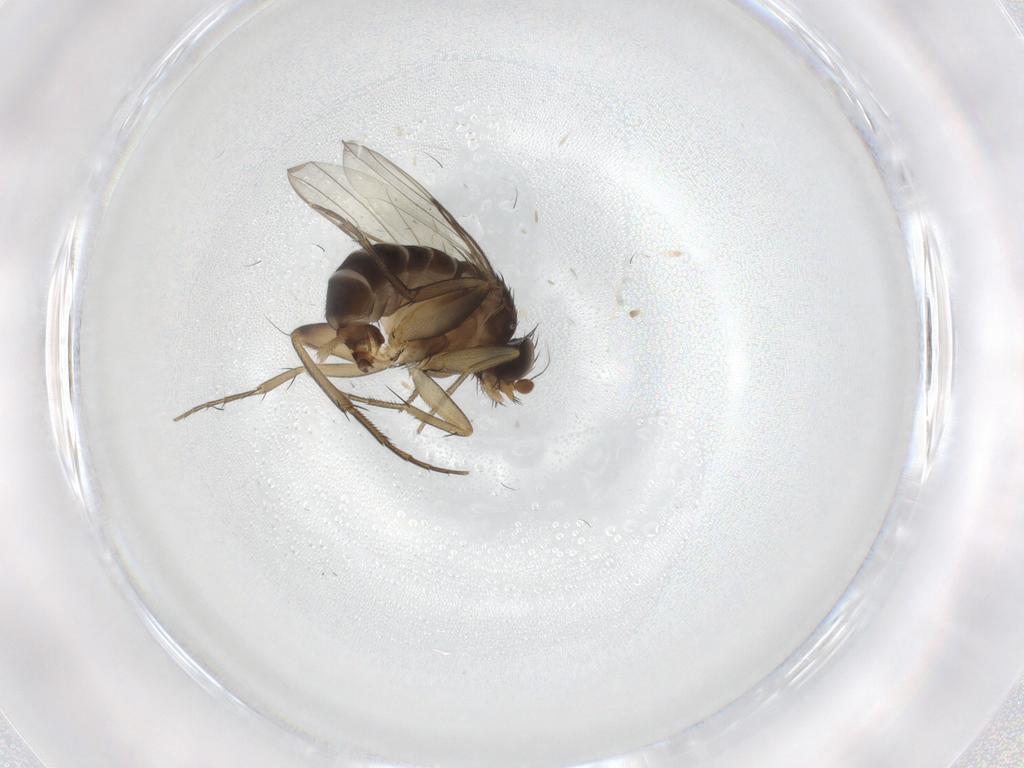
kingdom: Animalia
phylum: Arthropoda
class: Insecta
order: Diptera
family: Phoridae
